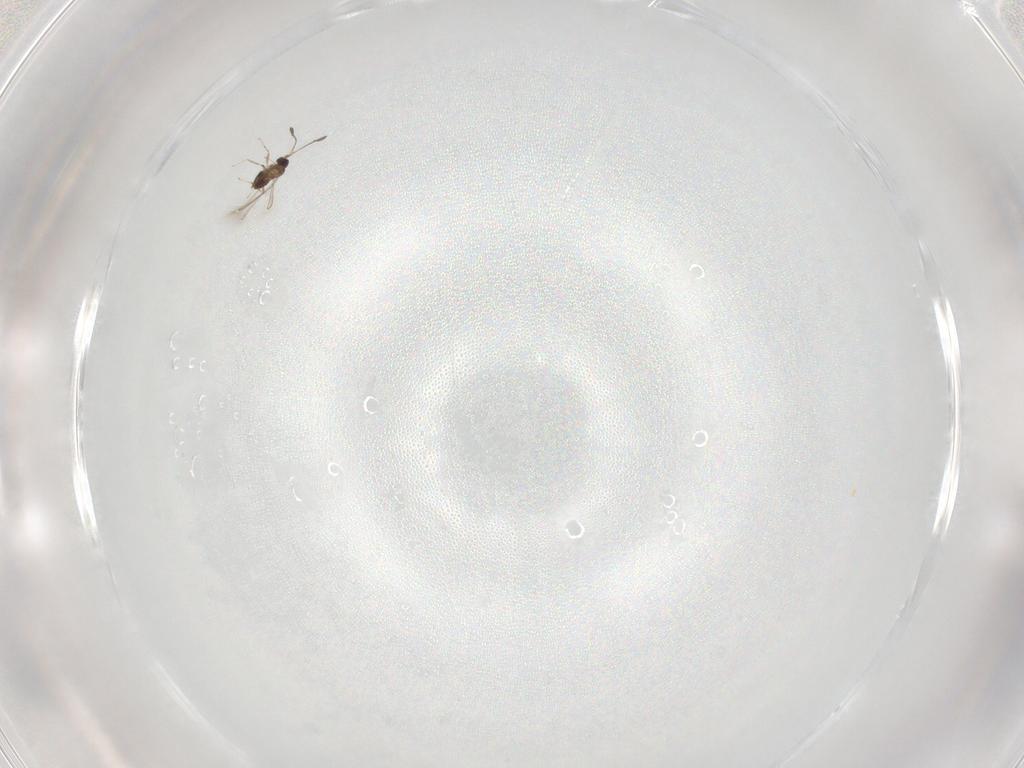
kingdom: Animalia
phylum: Arthropoda
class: Insecta
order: Hymenoptera
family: Mymaridae
